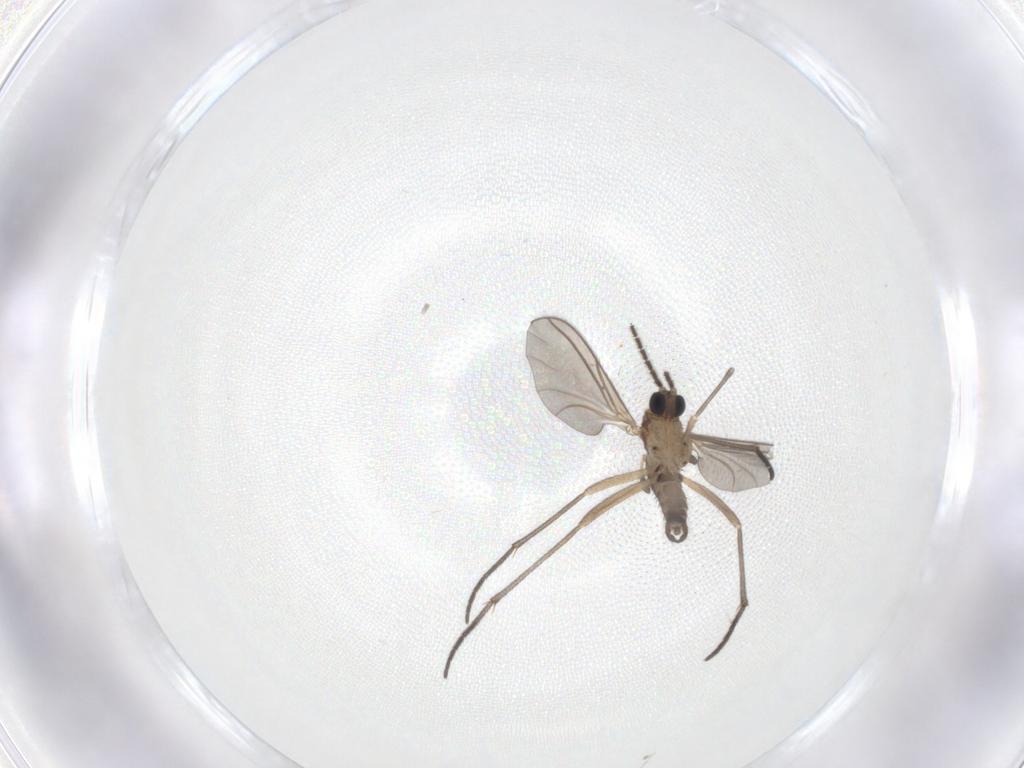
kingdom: Animalia
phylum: Arthropoda
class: Insecta
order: Diptera
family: Sciaridae
